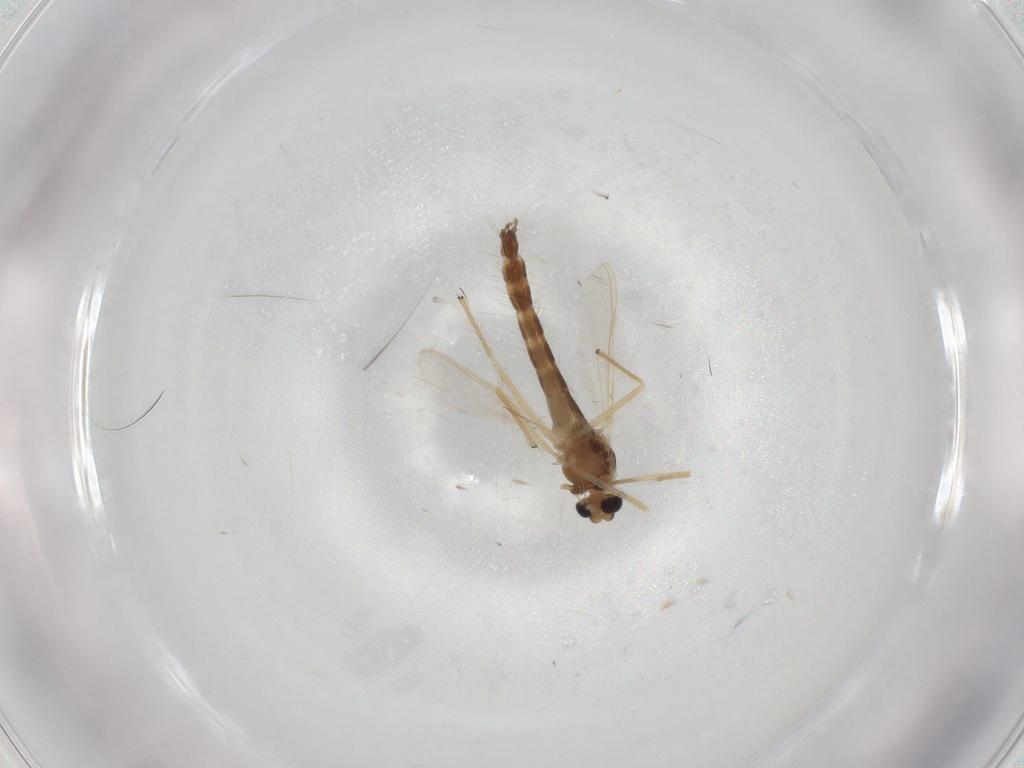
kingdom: Animalia
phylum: Arthropoda
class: Insecta
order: Diptera
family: Chironomidae
